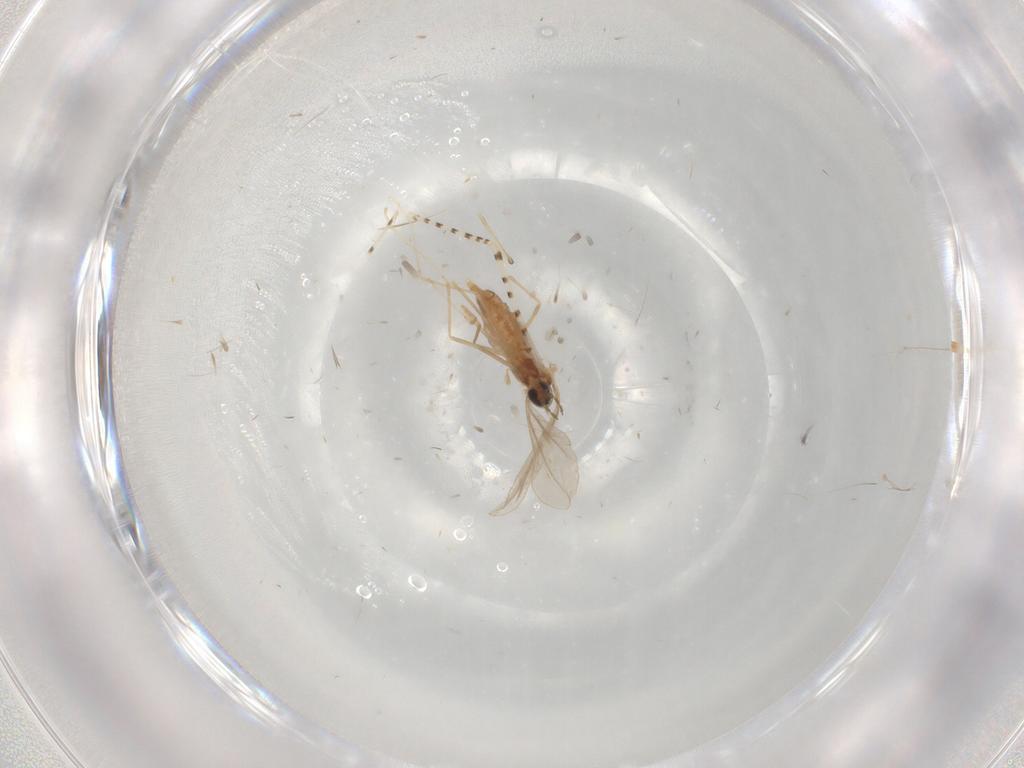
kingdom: Animalia
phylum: Arthropoda
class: Insecta
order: Diptera
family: Cecidomyiidae
